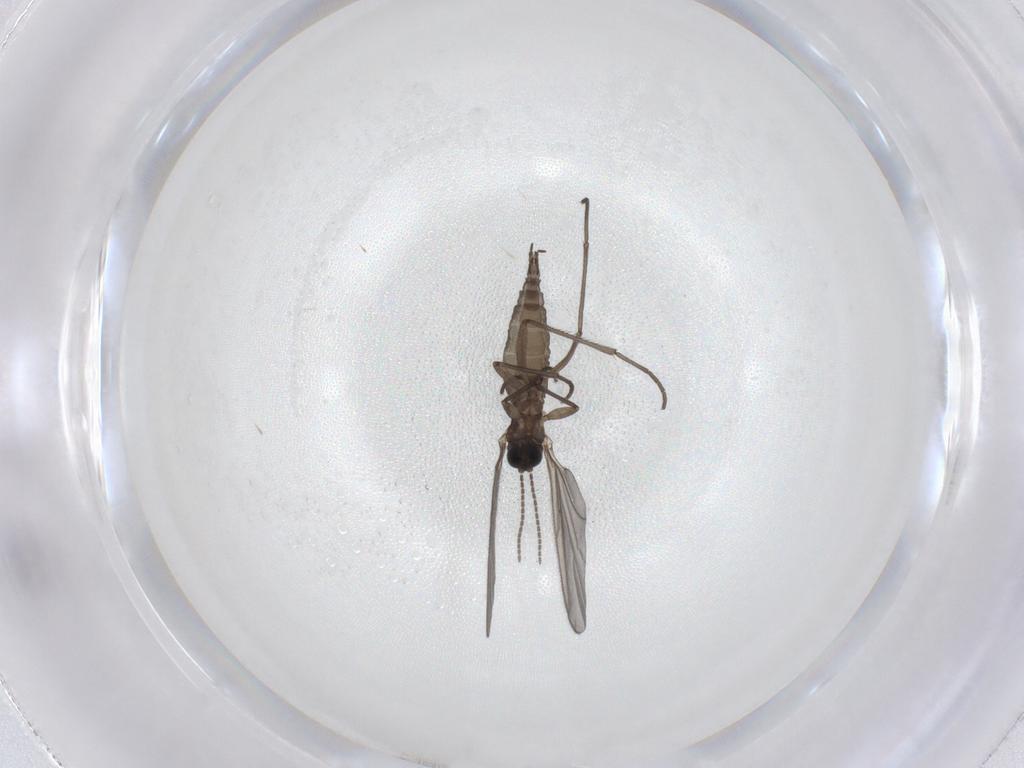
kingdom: Animalia
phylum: Arthropoda
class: Insecta
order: Diptera
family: Sciaridae
